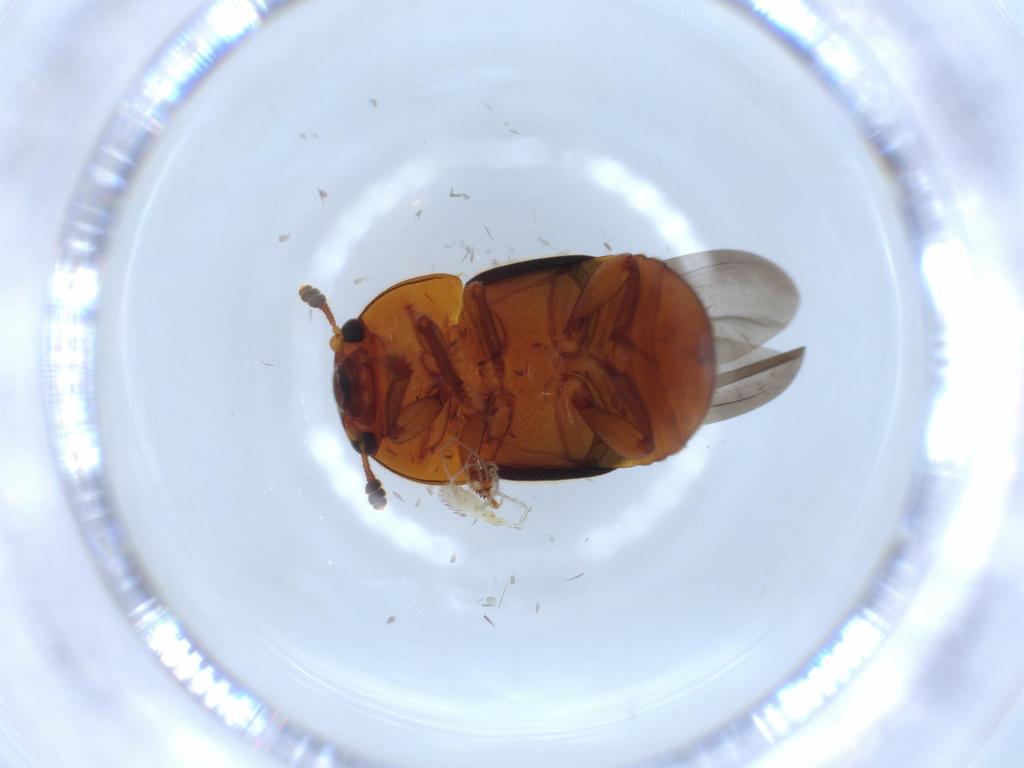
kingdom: Animalia
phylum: Arthropoda
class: Insecta
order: Coleoptera
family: Nitidulidae
